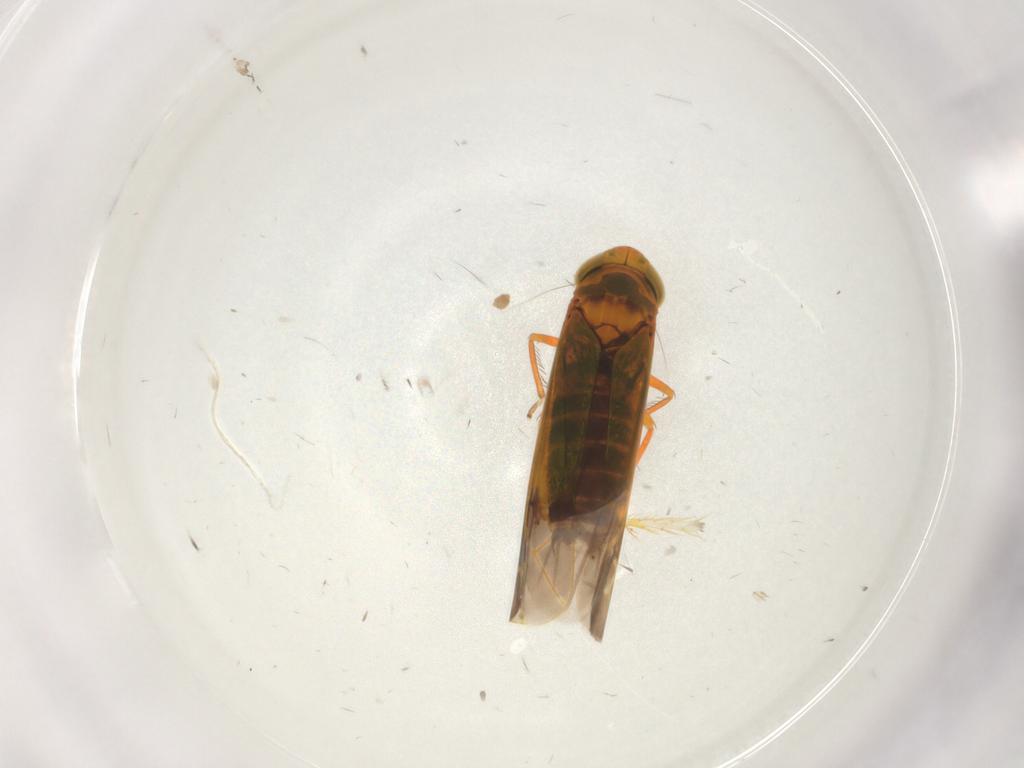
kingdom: Animalia
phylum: Arthropoda
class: Insecta
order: Hemiptera
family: Cicadellidae
